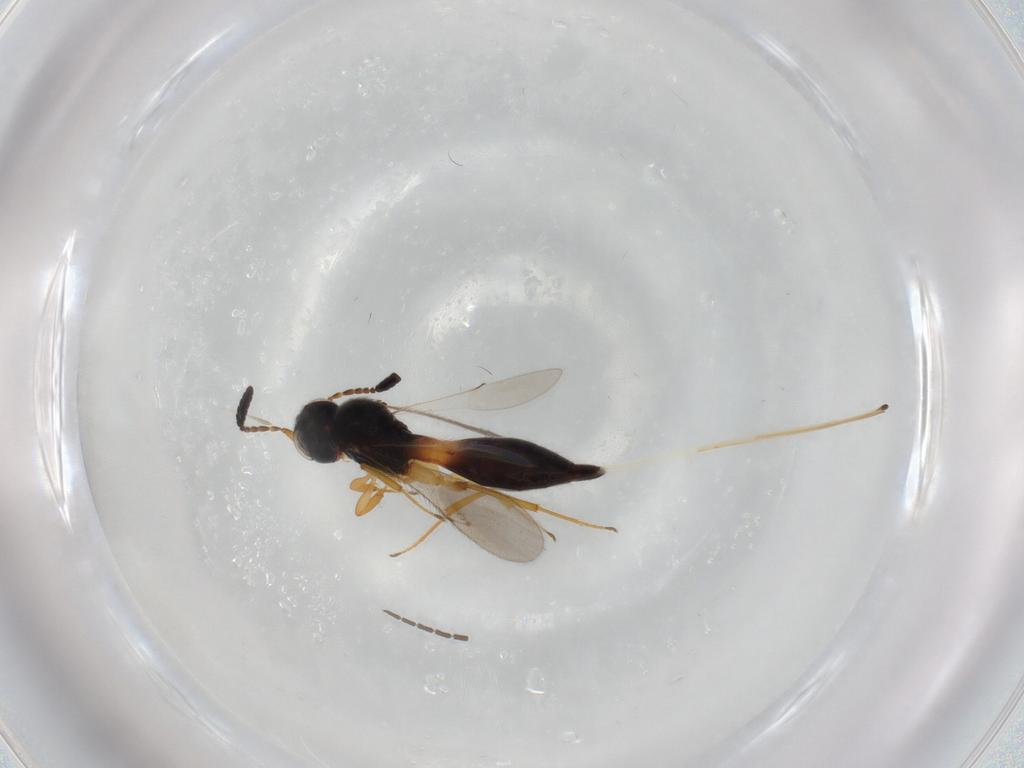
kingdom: Animalia
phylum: Arthropoda
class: Insecta
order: Hymenoptera
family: Scelionidae
